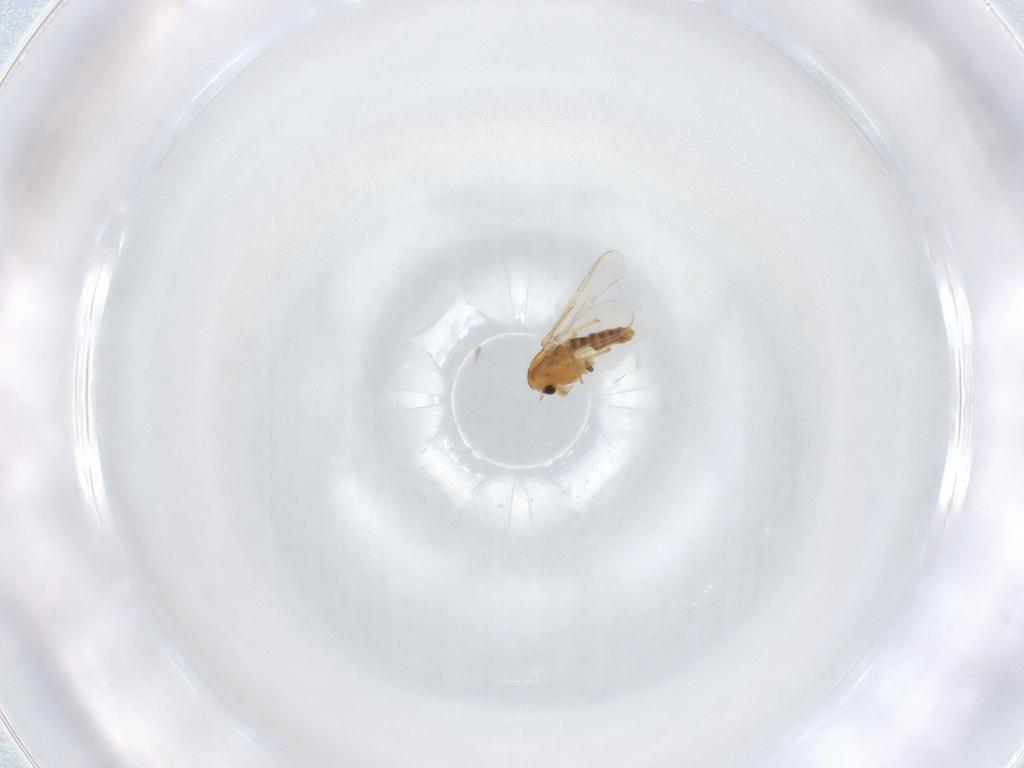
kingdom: Animalia
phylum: Arthropoda
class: Insecta
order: Diptera
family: Chironomidae
